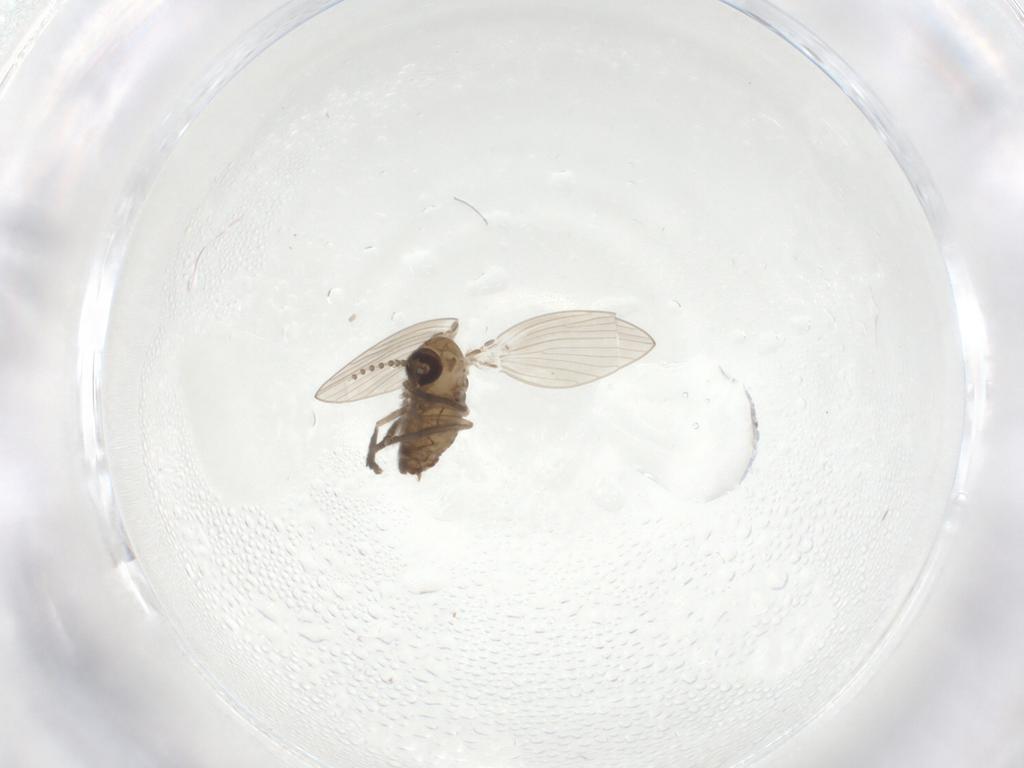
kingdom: Animalia
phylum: Arthropoda
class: Insecta
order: Diptera
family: Psychodidae
